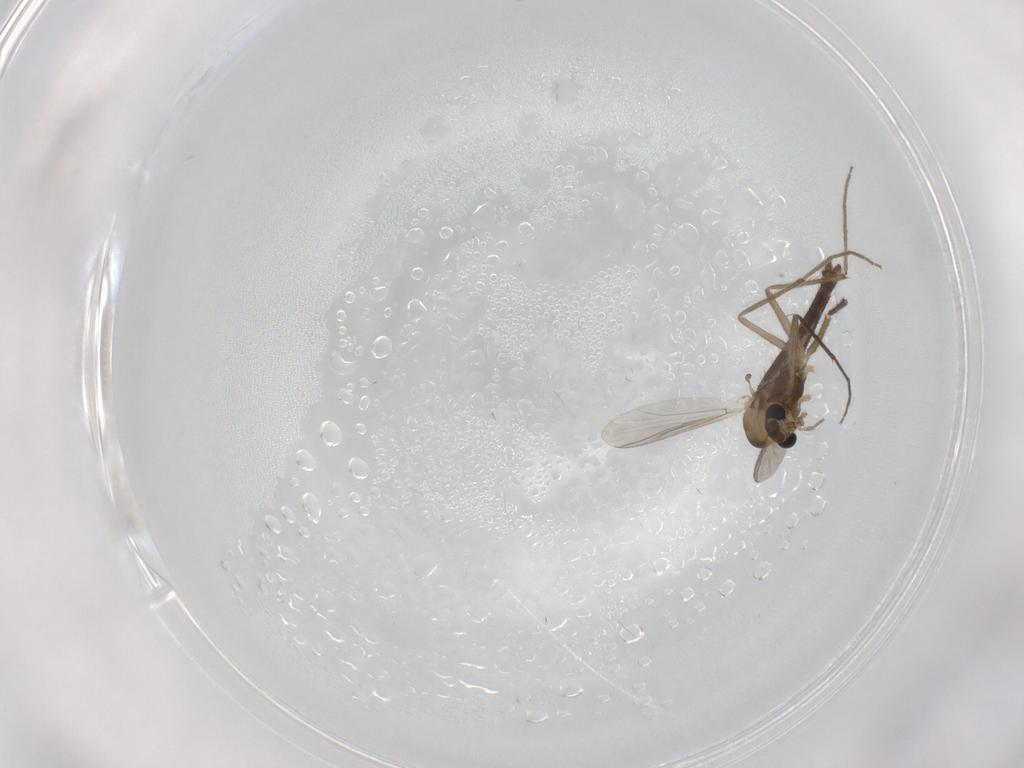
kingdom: Animalia
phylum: Arthropoda
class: Insecta
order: Diptera
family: Chironomidae
